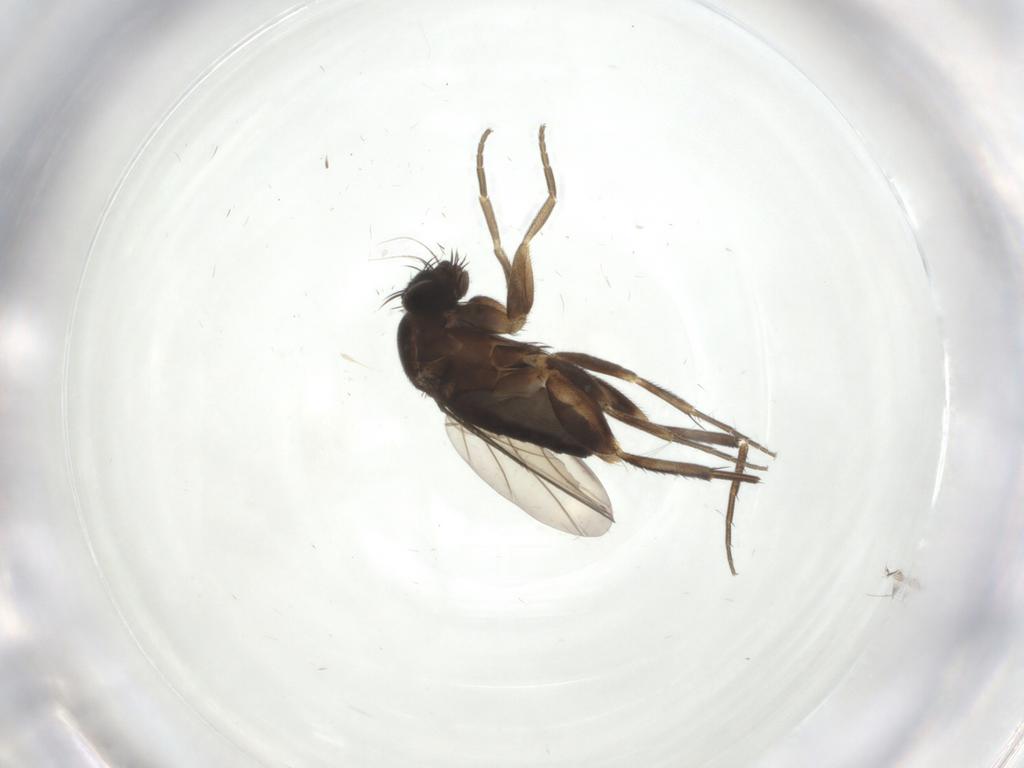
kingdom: Animalia
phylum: Arthropoda
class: Insecta
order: Diptera
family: Phoridae
